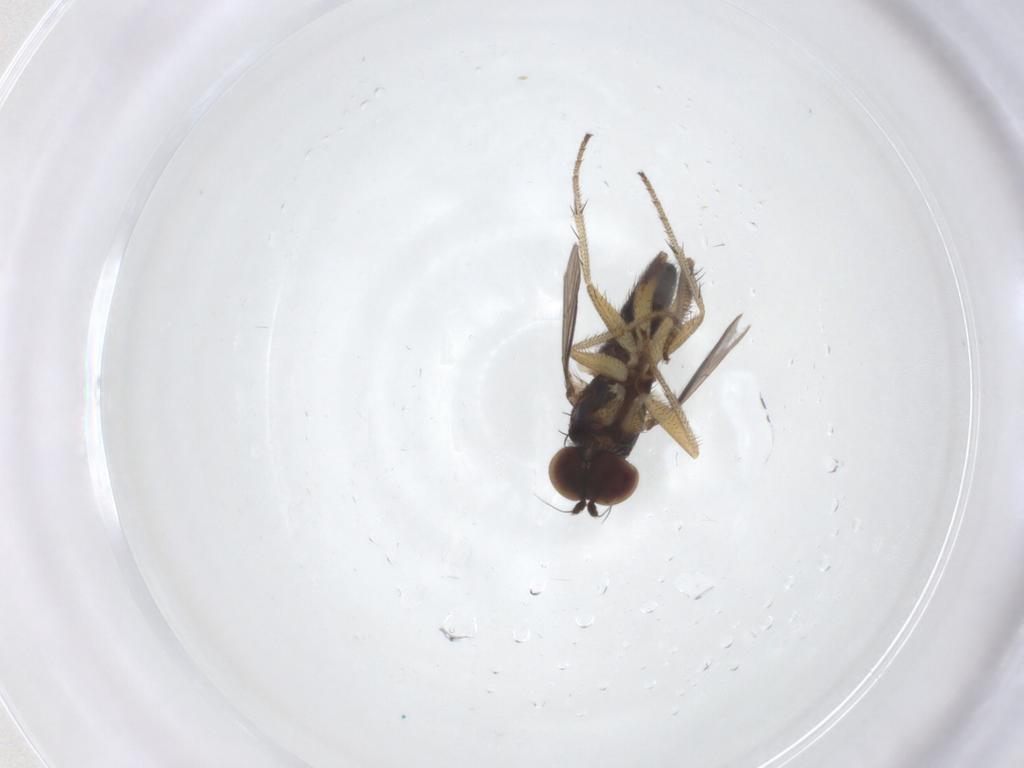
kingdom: Animalia
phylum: Arthropoda
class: Insecta
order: Diptera
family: Dolichopodidae
